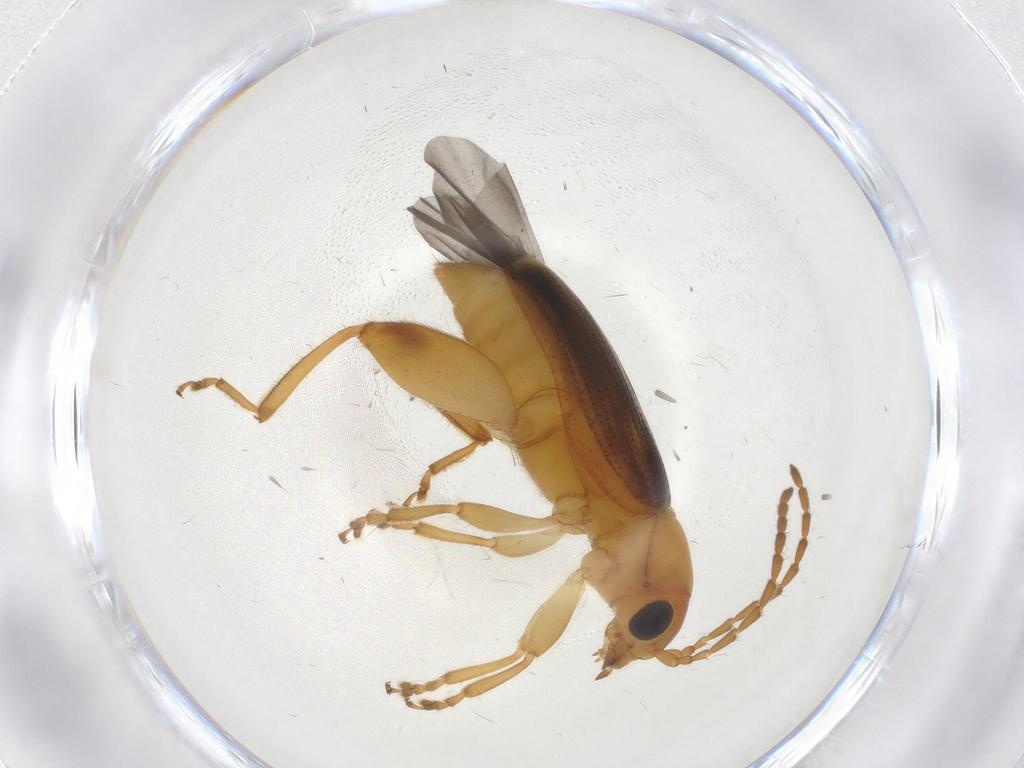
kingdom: Animalia
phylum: Arthropoda
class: Insecta
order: Coleoptera
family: Chrysomelidae
